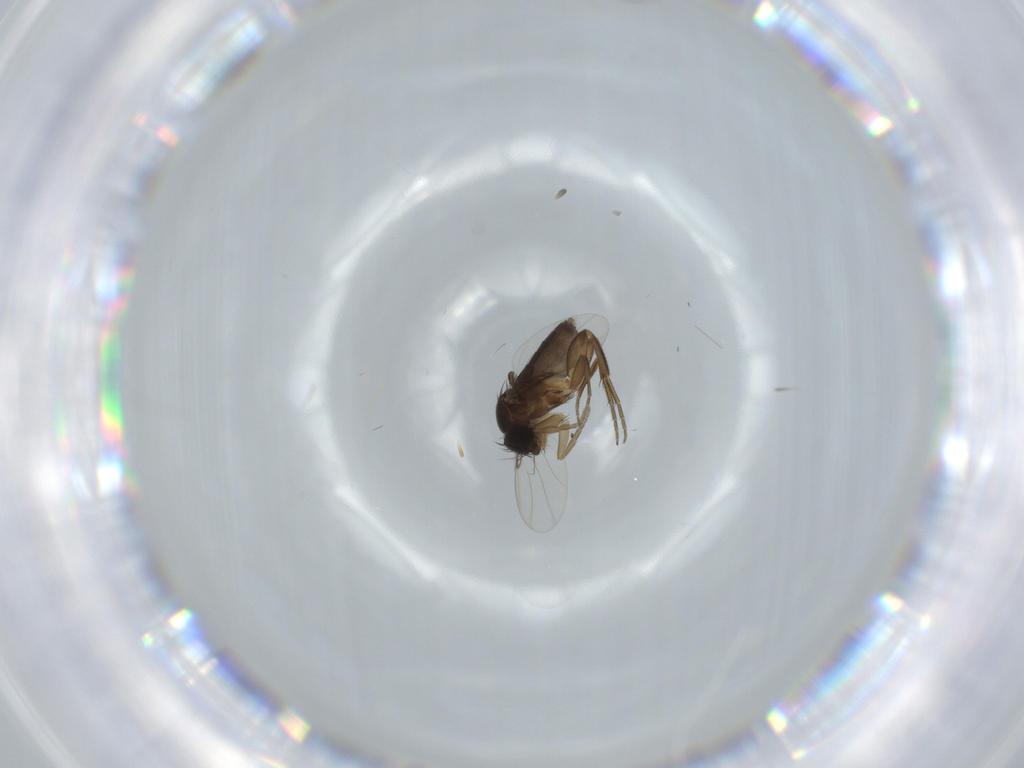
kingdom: Animalia
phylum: Arthropoda
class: Insecta
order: Diptera
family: Phoridae
